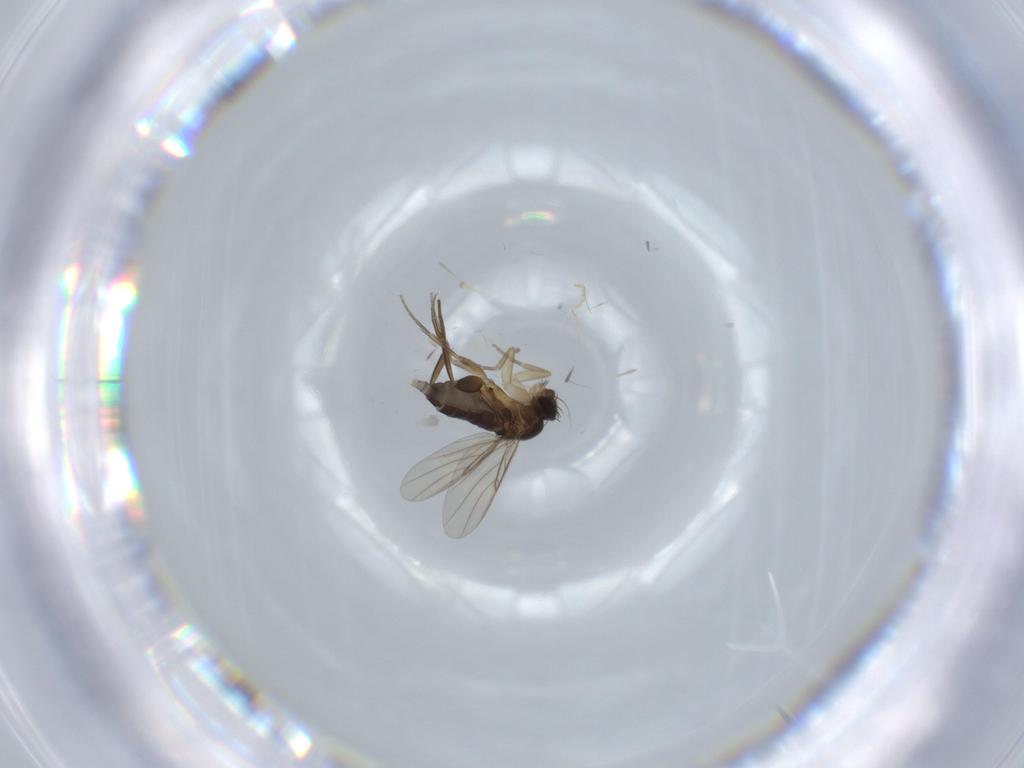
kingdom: Animalia
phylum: Arthropoda
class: Insecta
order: Diptera
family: Phoridae
